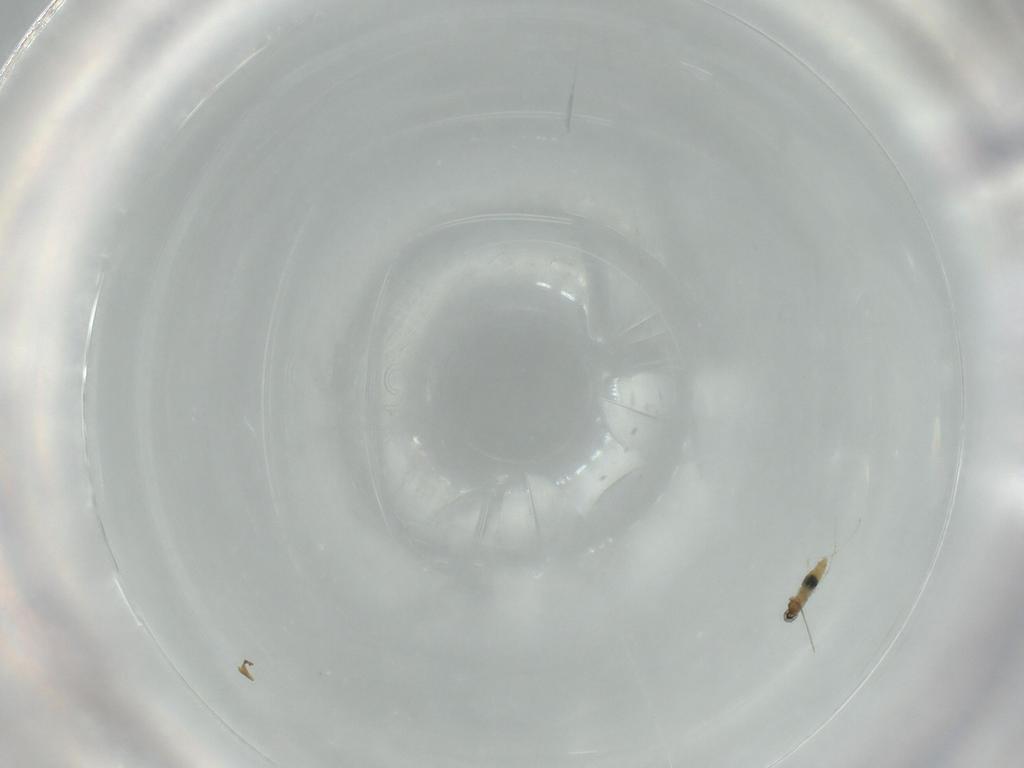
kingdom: Animalia
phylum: Arthropoda
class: Insecta
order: Diptera
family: Cecidomyiidae
